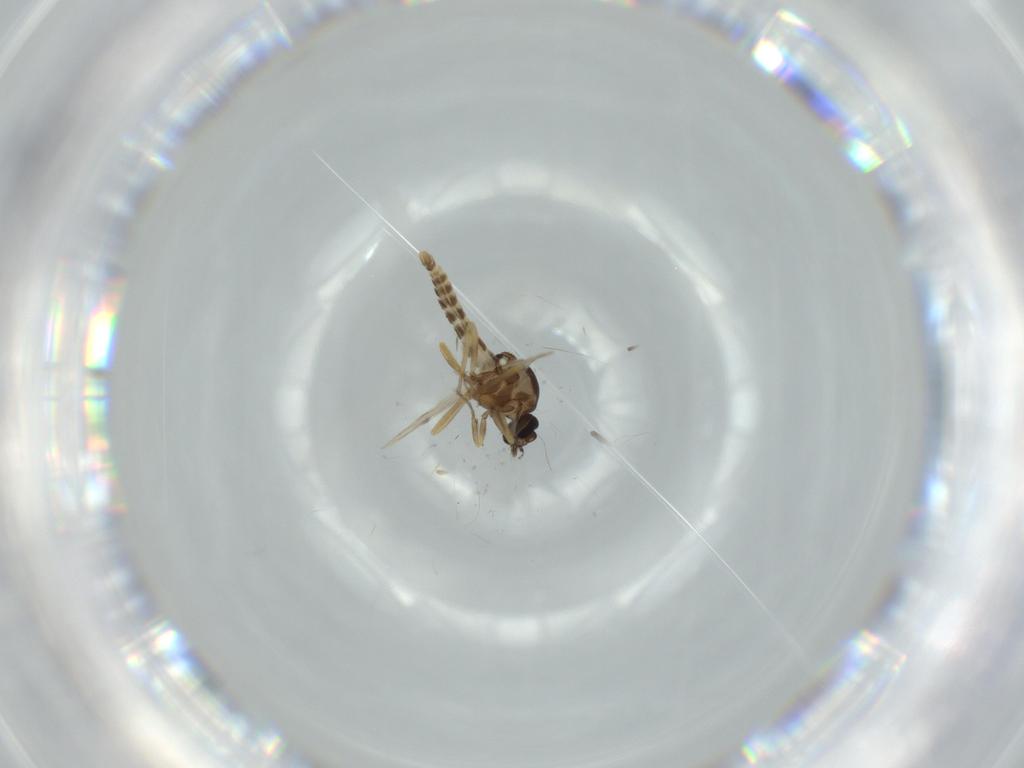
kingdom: Animalia
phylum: Arthropoda
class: Insecta
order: Diptera
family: Ceratopogonidae
